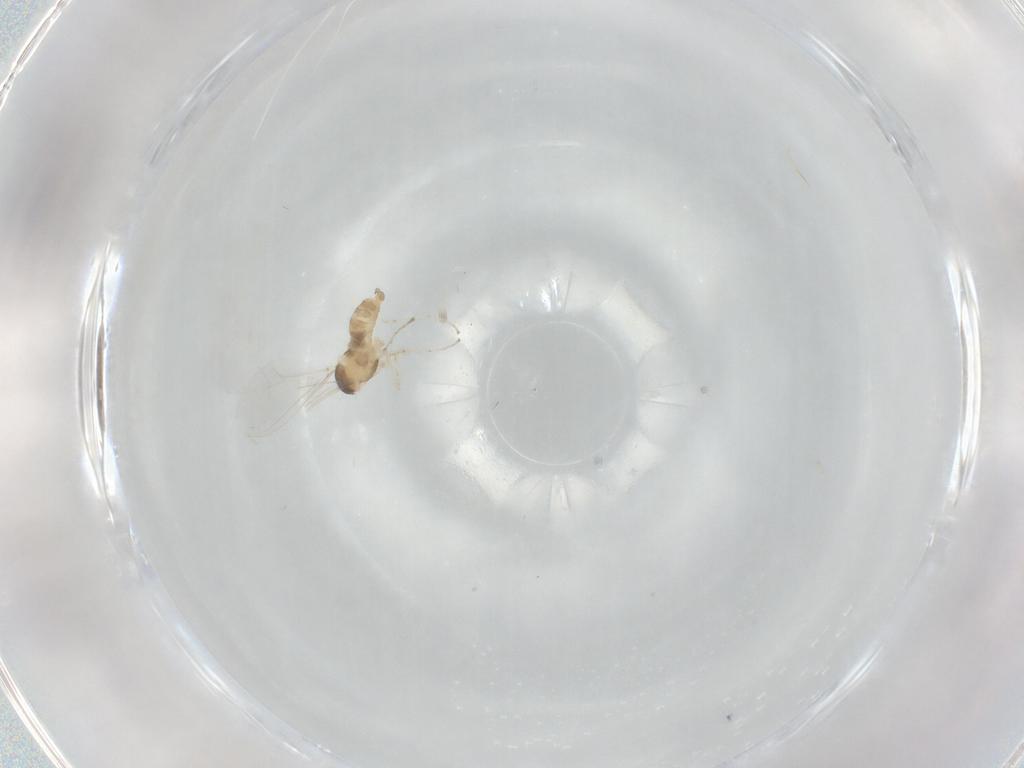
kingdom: Animalia
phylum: Arthropoda
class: Insecta
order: Diptera
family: Cecidomyiidae
